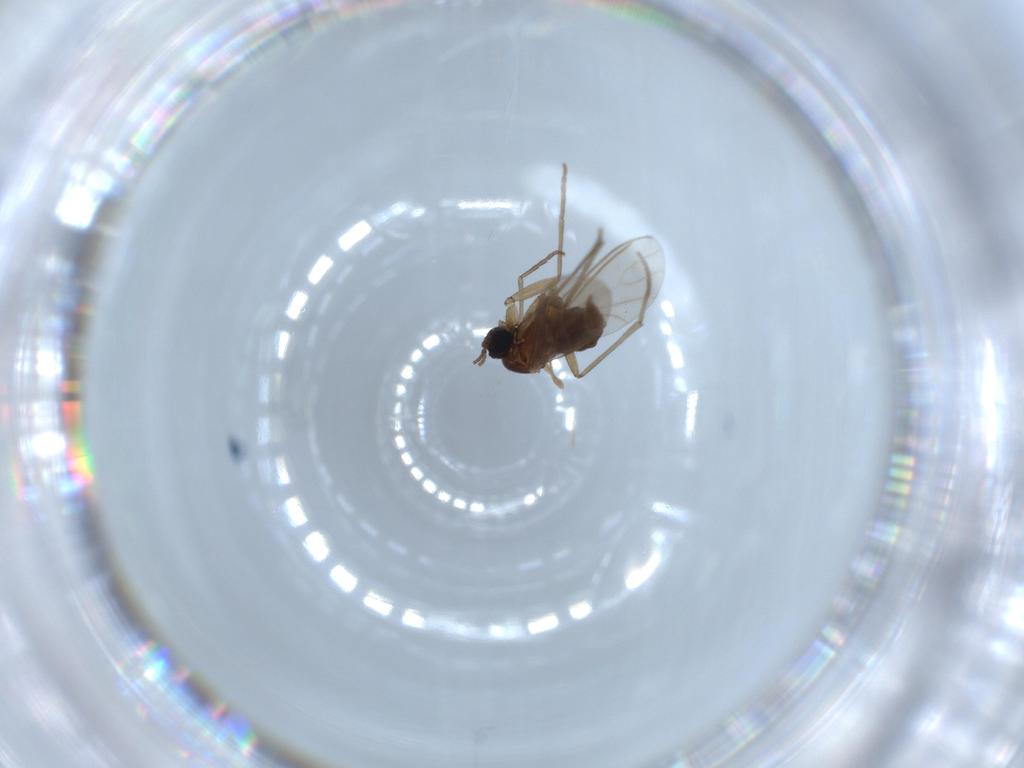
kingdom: Animalia
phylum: Arthropoda
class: Insecta
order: Diptera
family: Sciaridae
